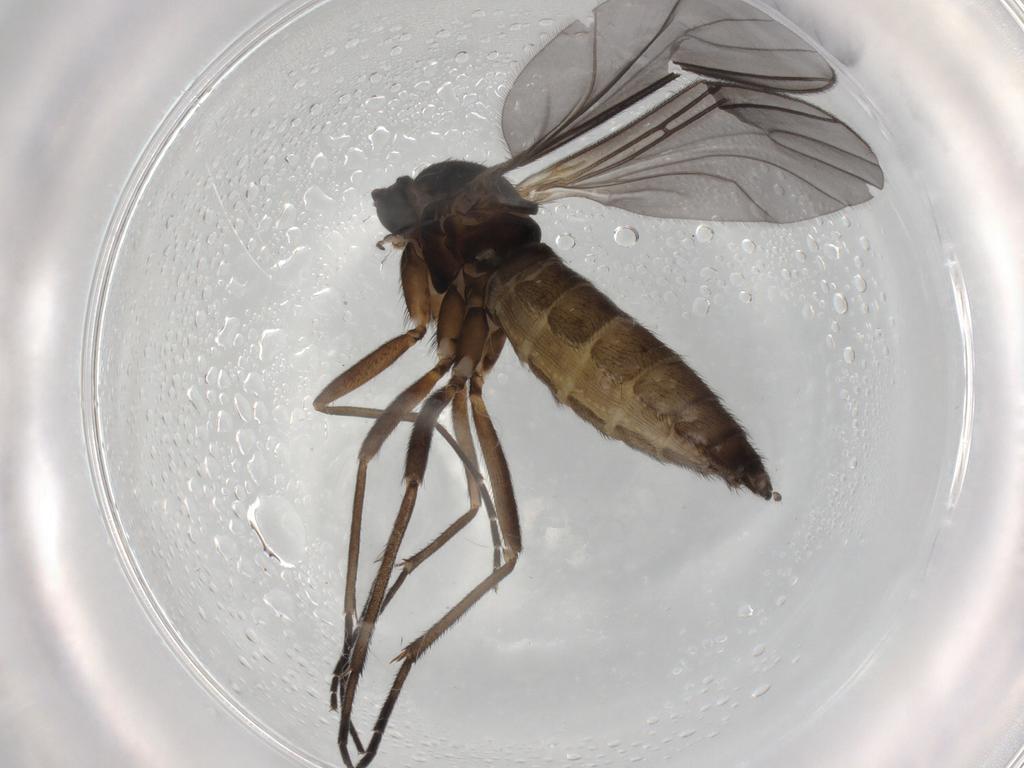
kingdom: Animalia
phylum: Arthropoda
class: Insecta
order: Diptera
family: Sciaridae
